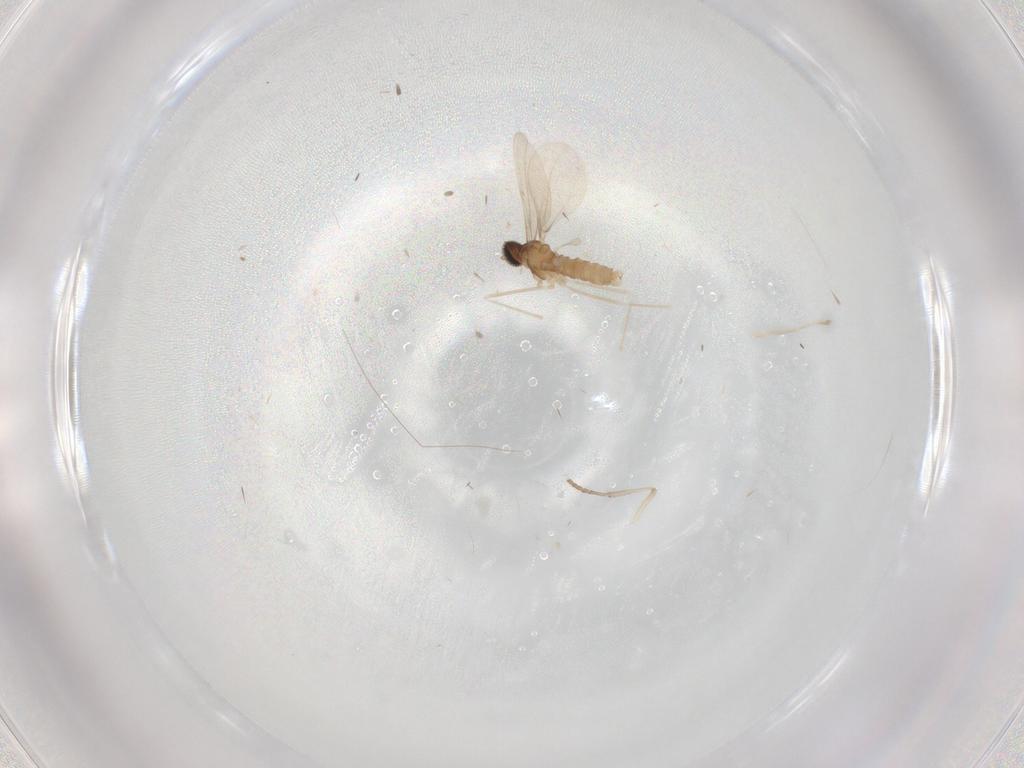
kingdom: Animalia
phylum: Arthropoda
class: Insecta
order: Diptera
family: Cecidomyiidae
